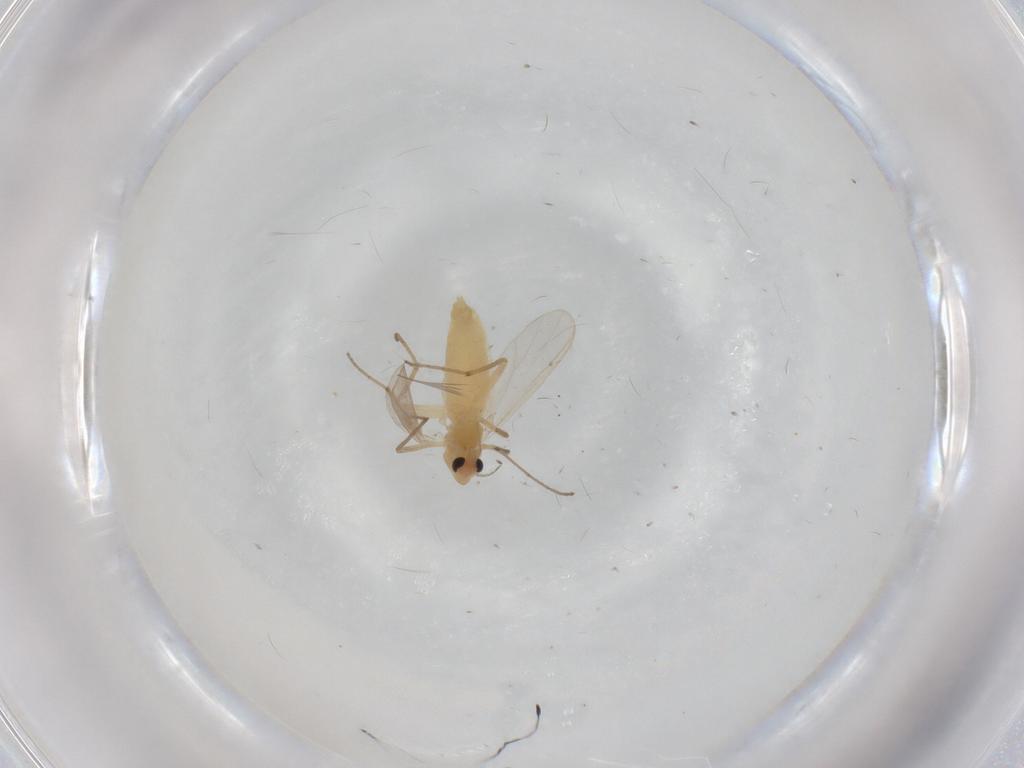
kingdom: Animalia
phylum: Arthropoda
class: Insecta
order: Diptera
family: Chironomidae
